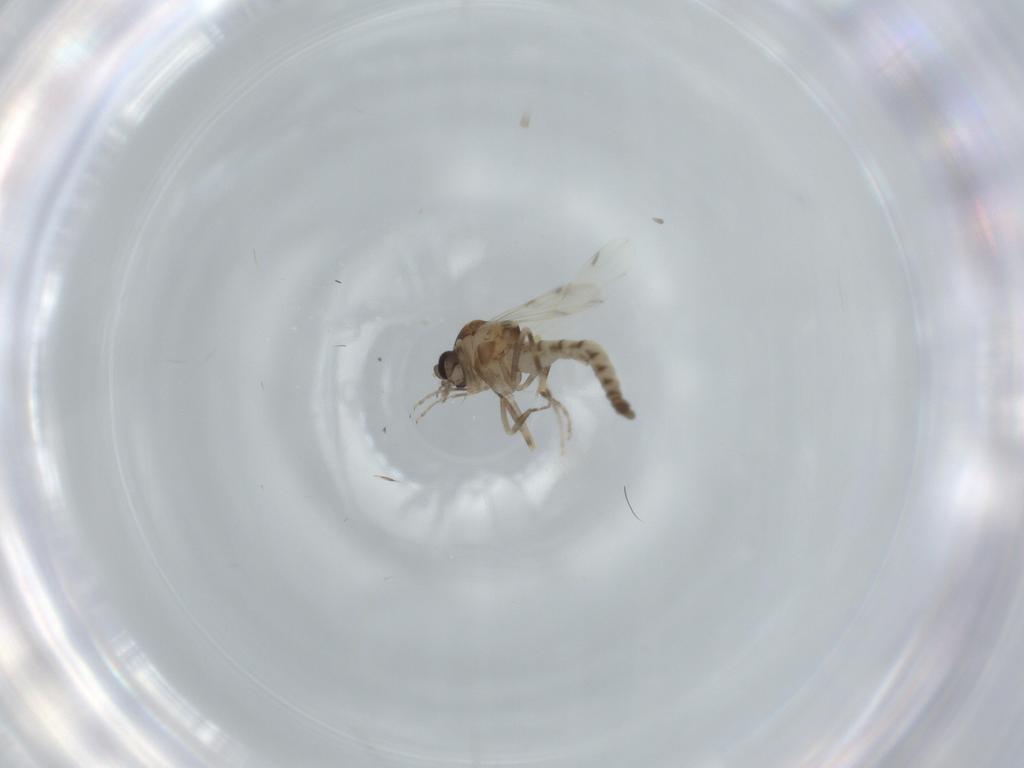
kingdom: Animalia
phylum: Arthropoda
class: Insecta
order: Diptera
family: Ceratopogonidae
